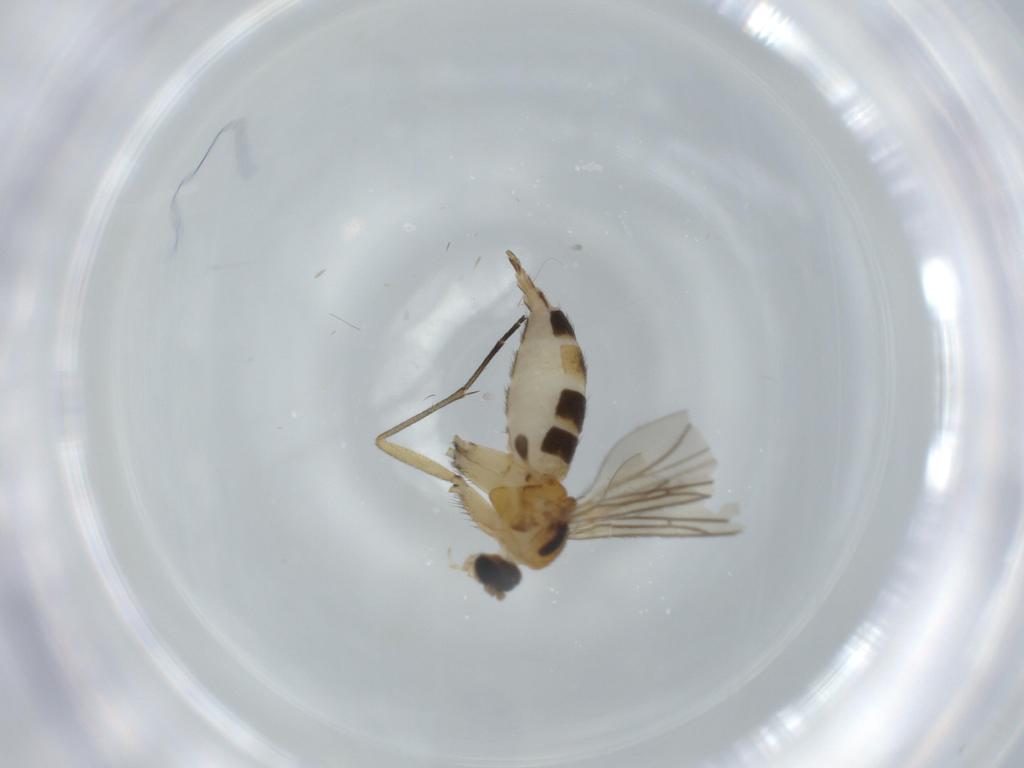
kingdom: Animalia
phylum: Arthropoda
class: Insecta
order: Diptera
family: Sciaridae
